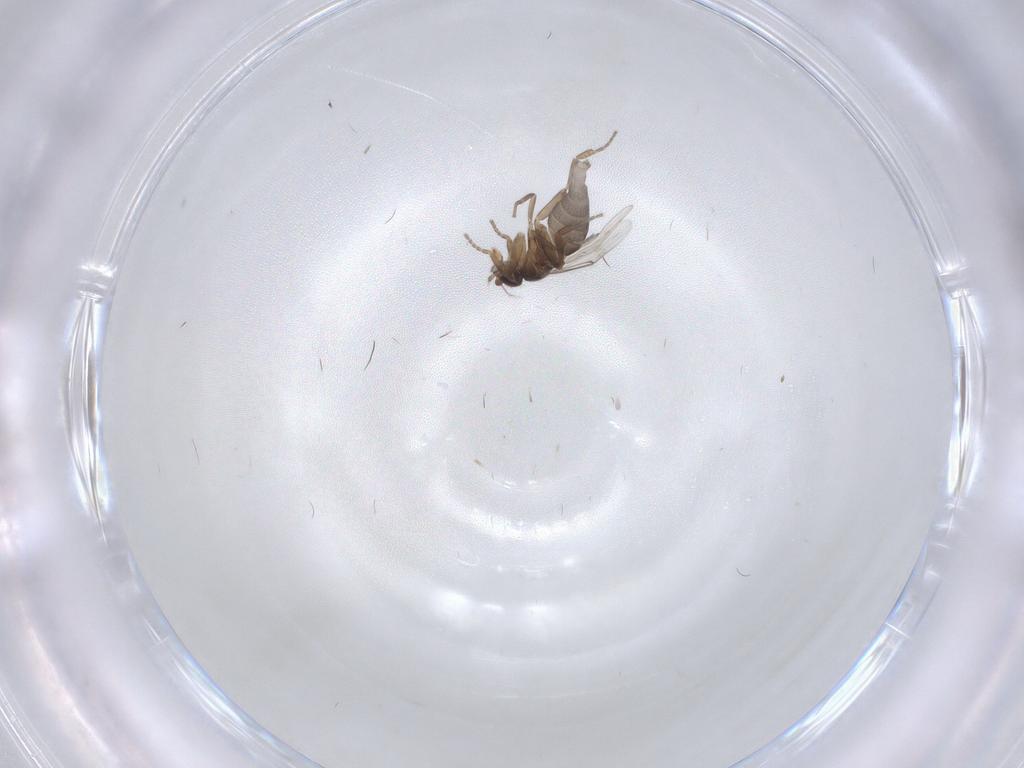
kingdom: Animalia
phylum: Arthropoda
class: Insecta
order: Diptera
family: Phoridae
